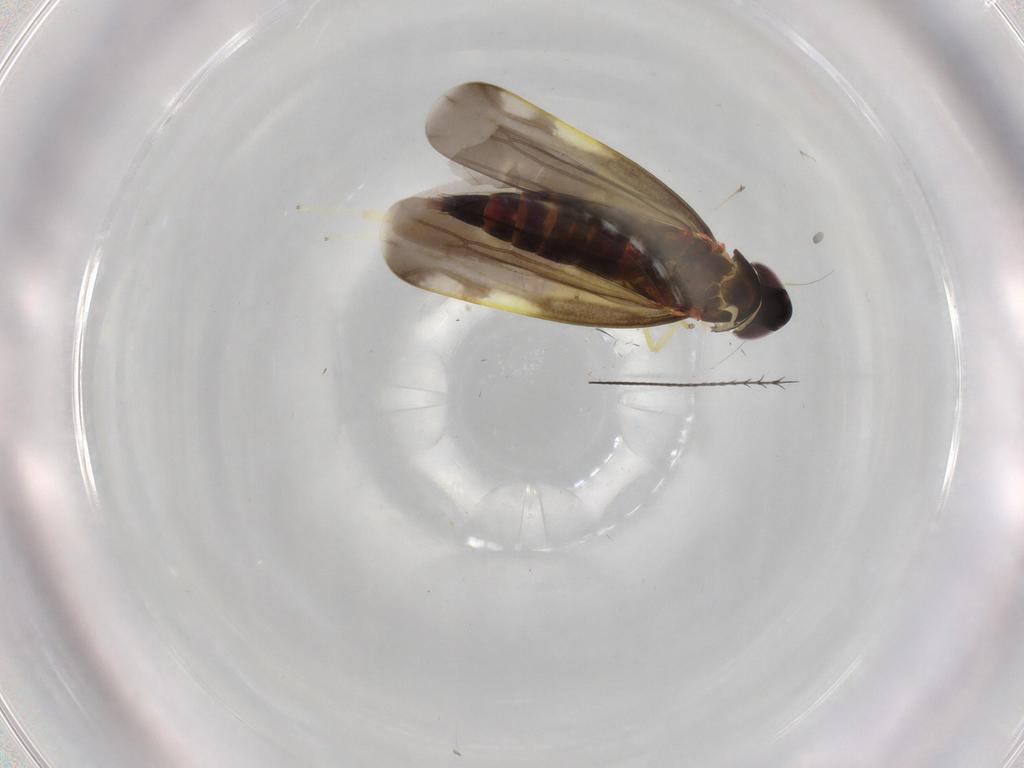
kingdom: Animalia
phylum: Arthropoda
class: Insecta
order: Hemiptera
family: Cicadellidae
